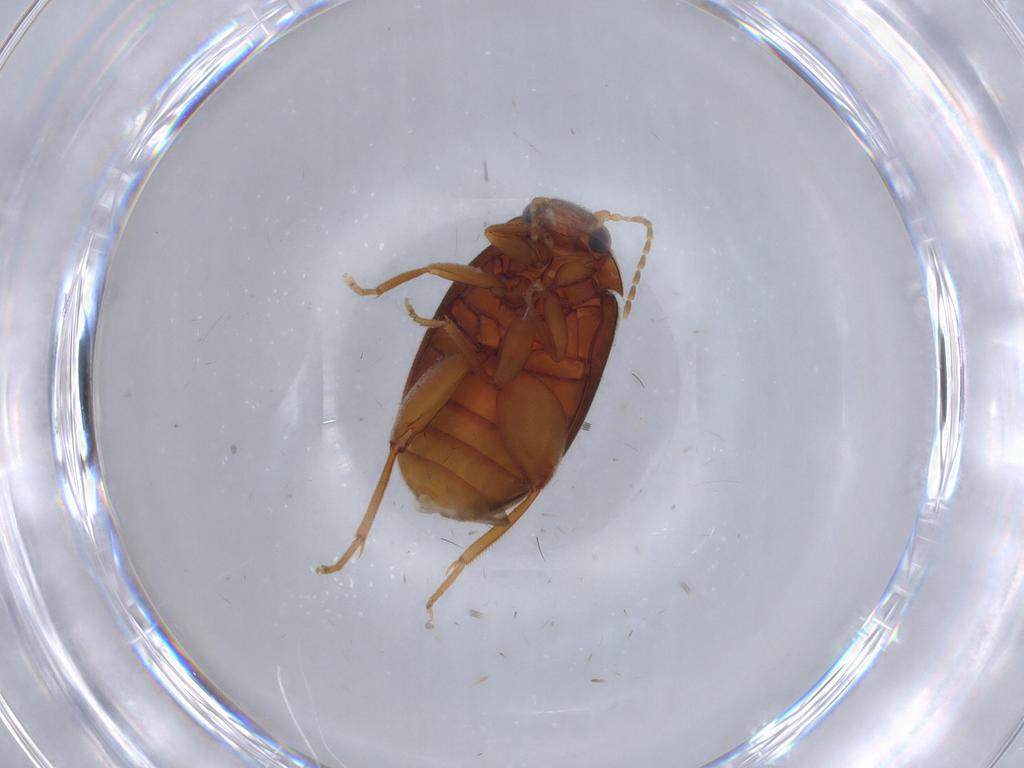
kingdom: Animalia
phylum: Arthropoda
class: Insecta
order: Coleoptera
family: Scirtidae
